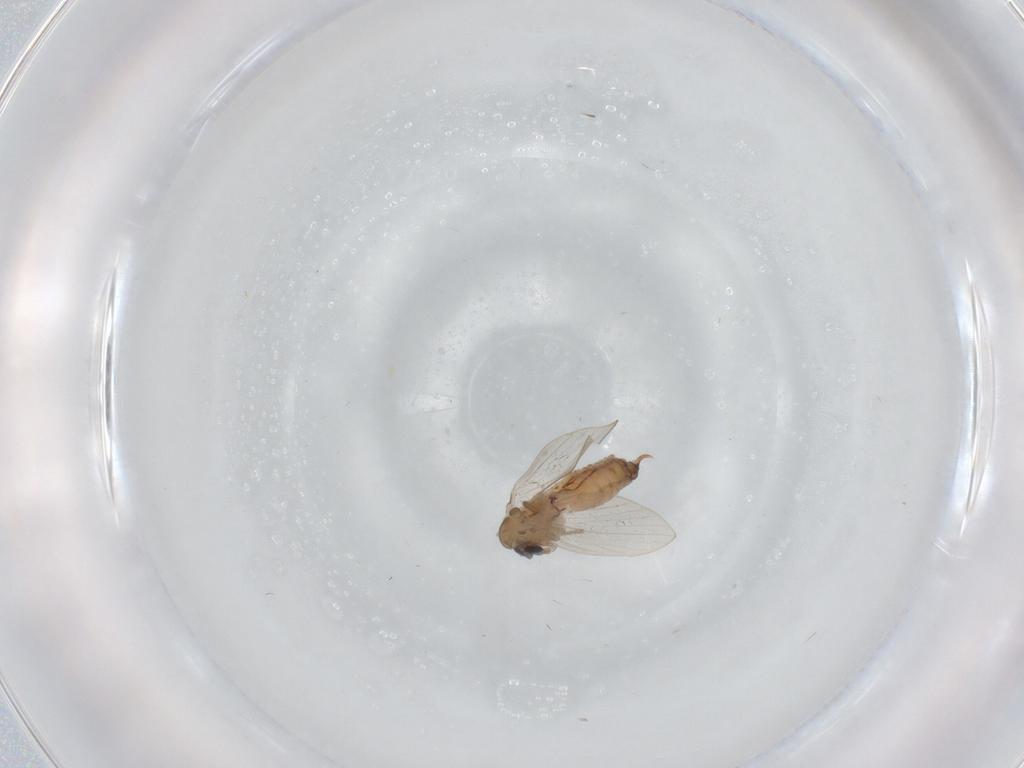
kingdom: Animalia
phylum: Arthropoda
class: Insecta
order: Diptera
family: Psychodidae
